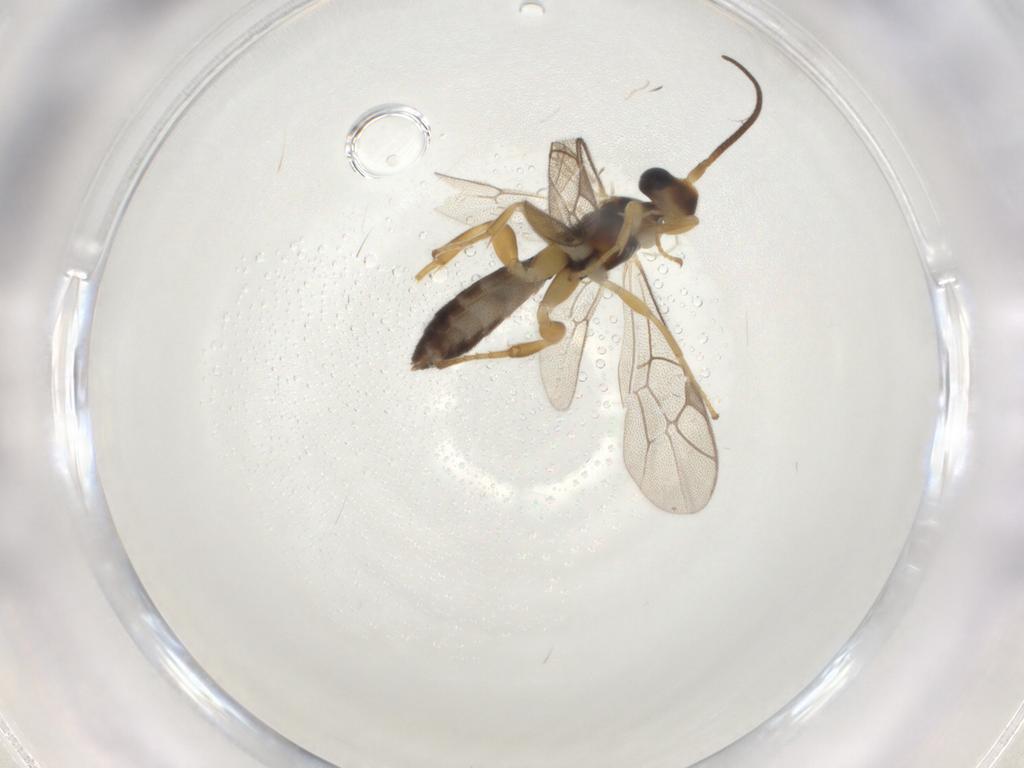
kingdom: Animalia
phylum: Arthropoda
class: Insecta
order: Hymenoptera
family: Ichneumonidae
